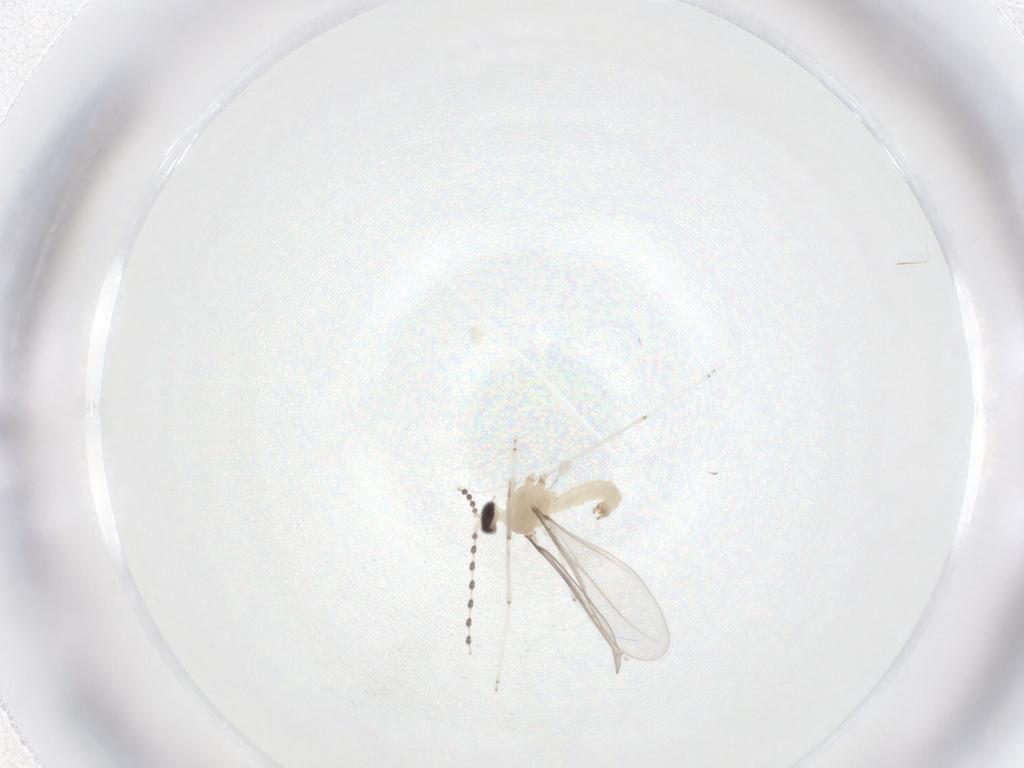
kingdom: Animalia
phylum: Arthropoda
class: Insecta
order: Diptera
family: Cecidomyiidae
